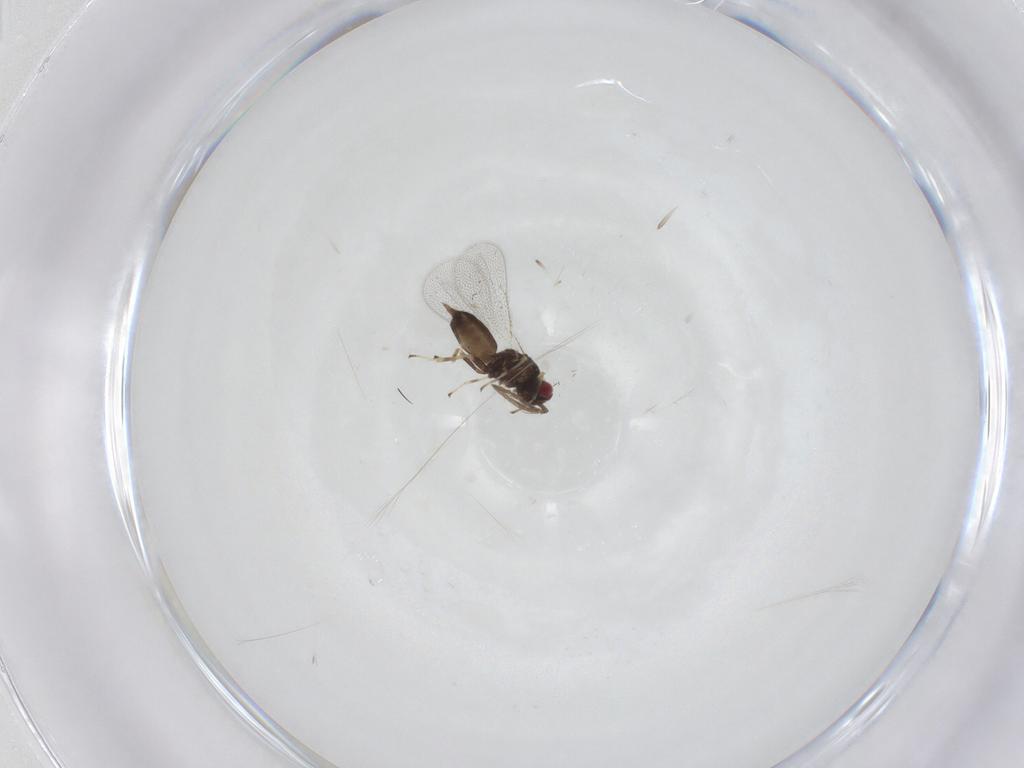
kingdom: Animalia
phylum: Arthropoda
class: Insecta
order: Hymenoptera
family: Eulophidae
